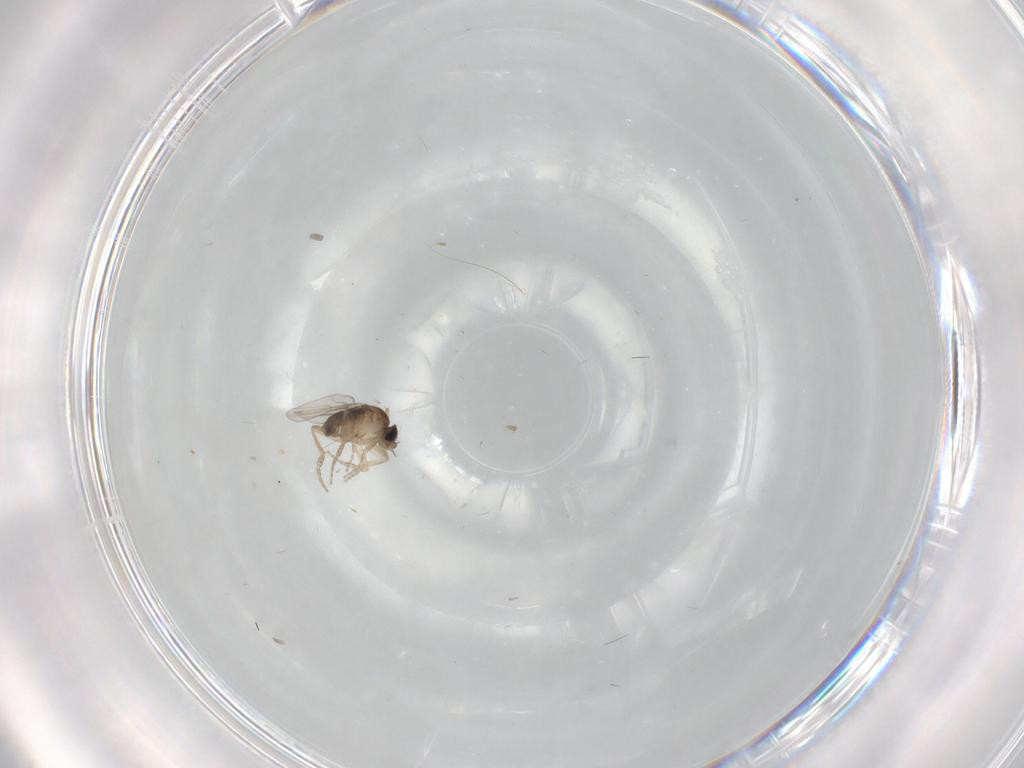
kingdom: Animalia
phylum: Arthropoda
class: Insecta
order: Diptera
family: Phoridae
